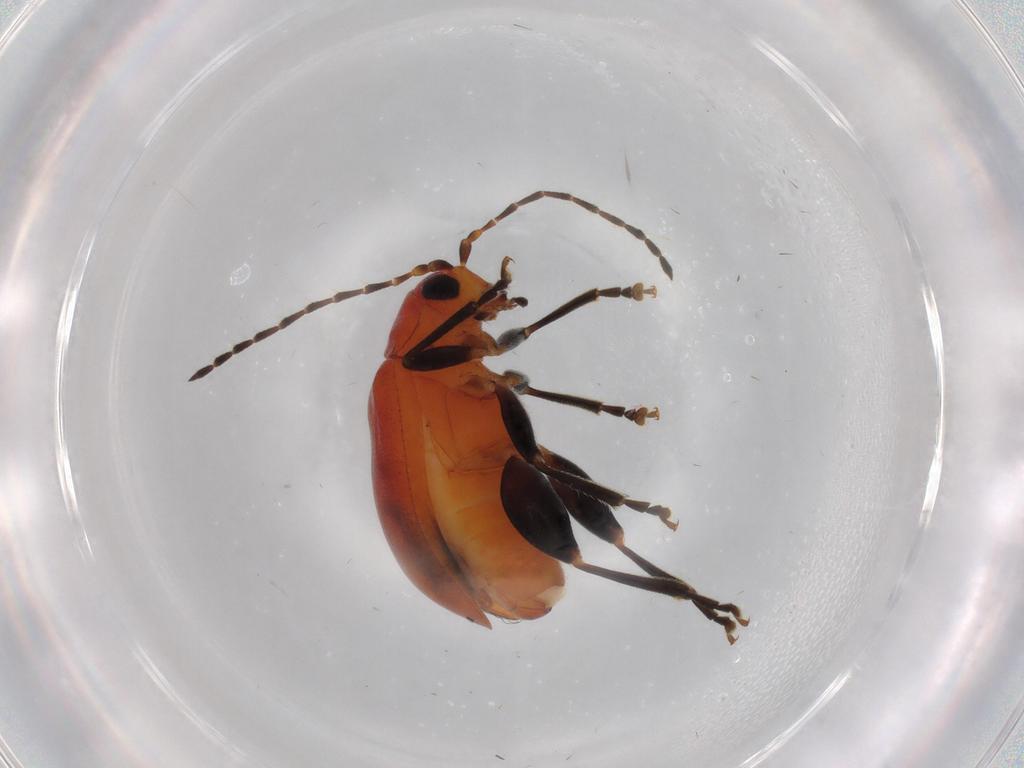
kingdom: Animalia
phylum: Arthropoda
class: Insecta
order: Coleoptera
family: Chrysomelidae
